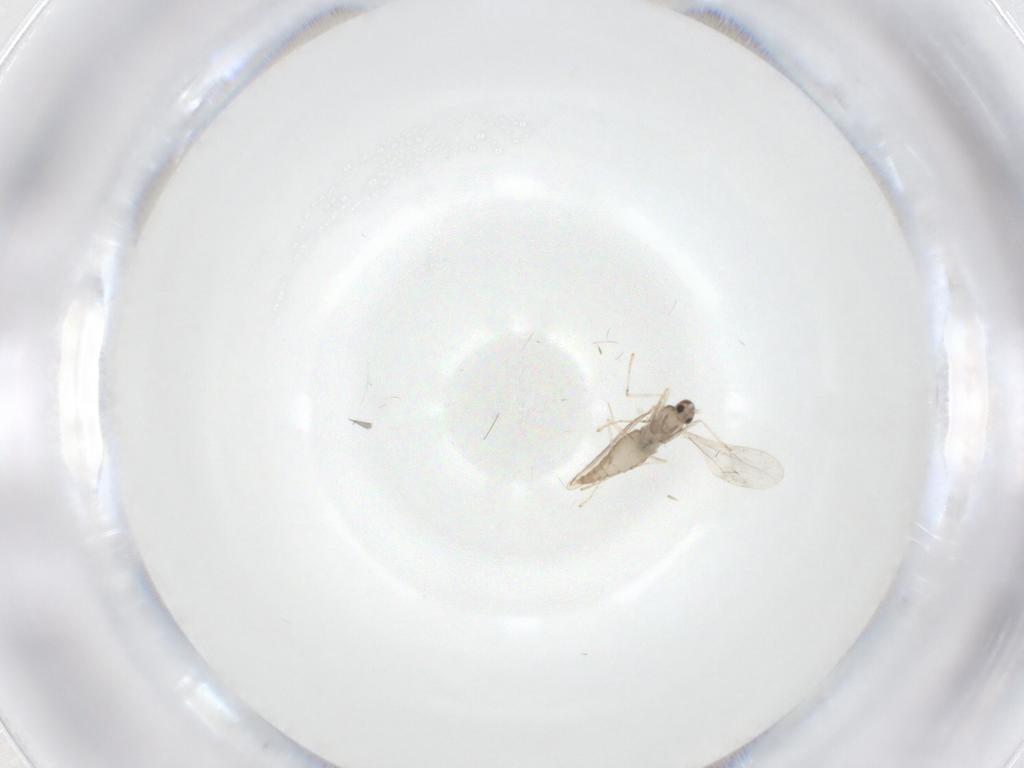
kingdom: Animalia
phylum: Arthropoda
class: Insecta
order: Diptera
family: Cecidomyiidae
